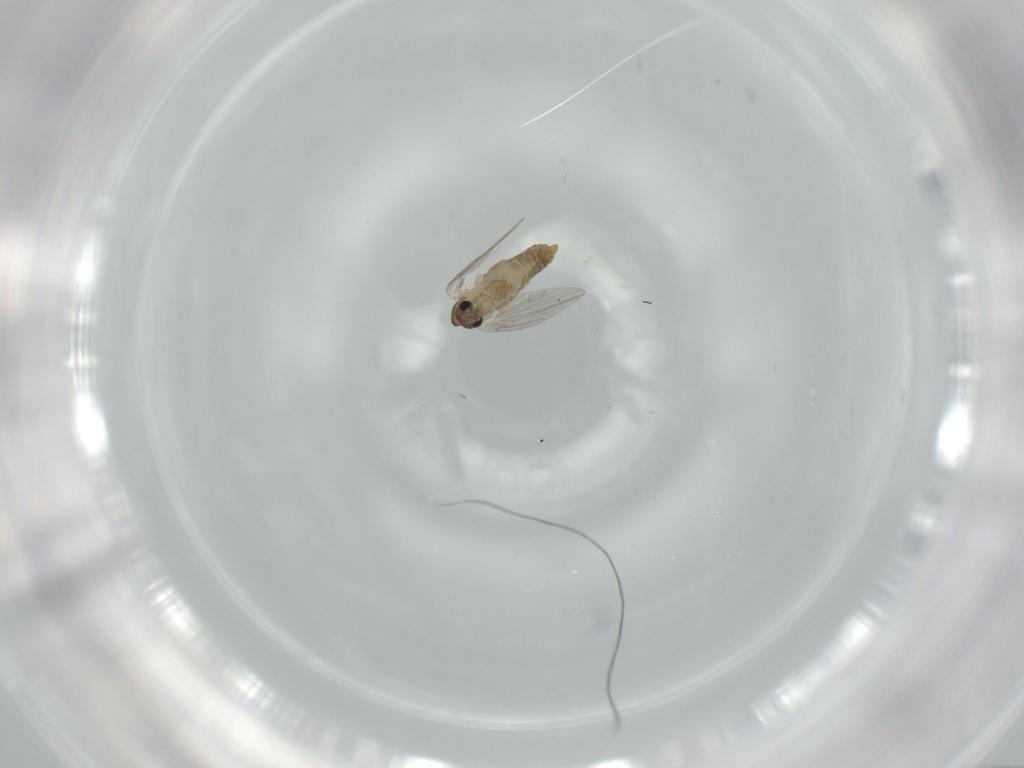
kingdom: Animalia
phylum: Arthropoda
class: Insecta
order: Diptera
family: Psychodidae
